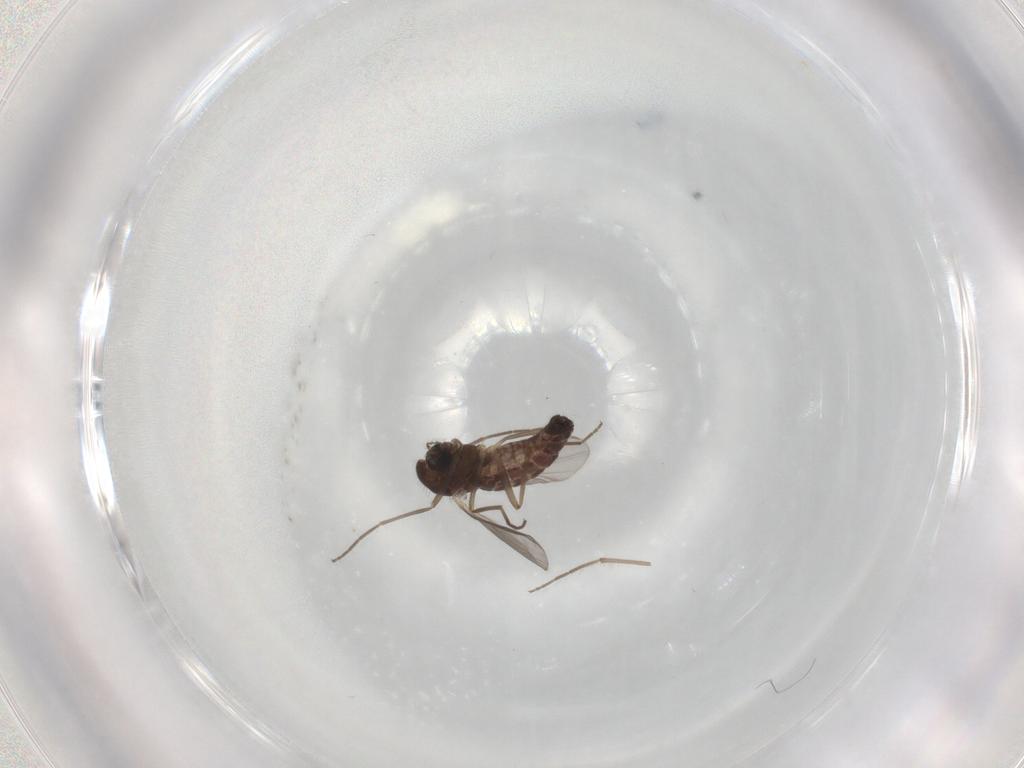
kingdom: Animalia
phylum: Arthropoda
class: Insecta
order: Diptera
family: Chironomidae
